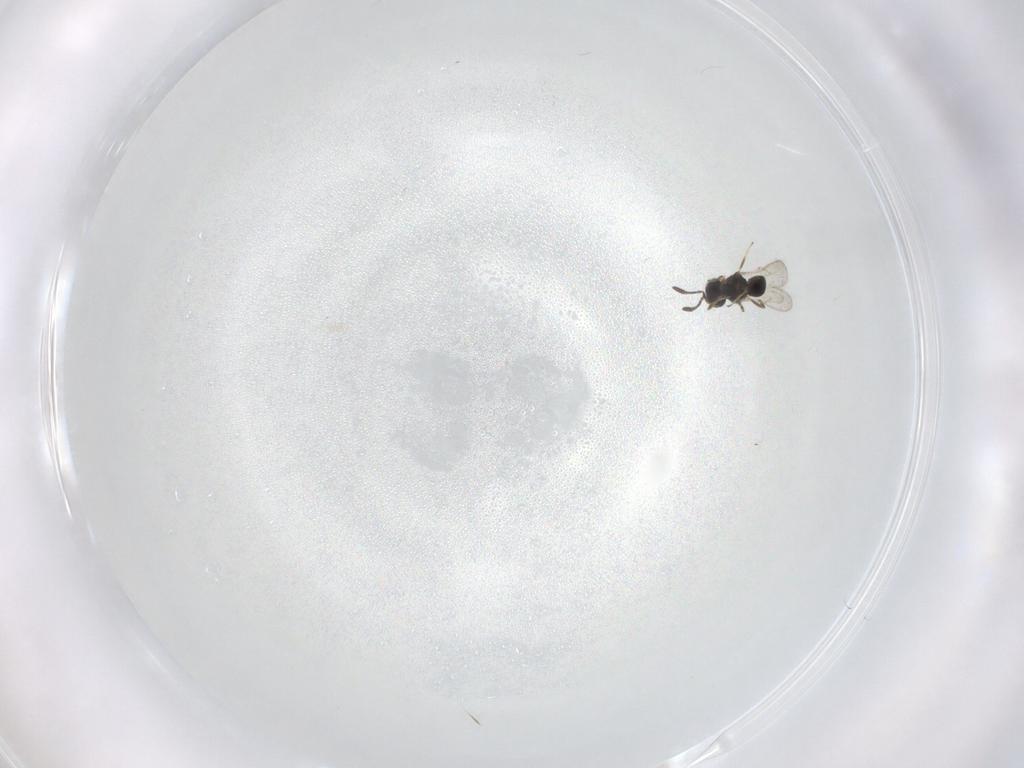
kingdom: Animalia
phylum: Arthropoda
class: Insecta
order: Hymenoptera
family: Scelionidae
